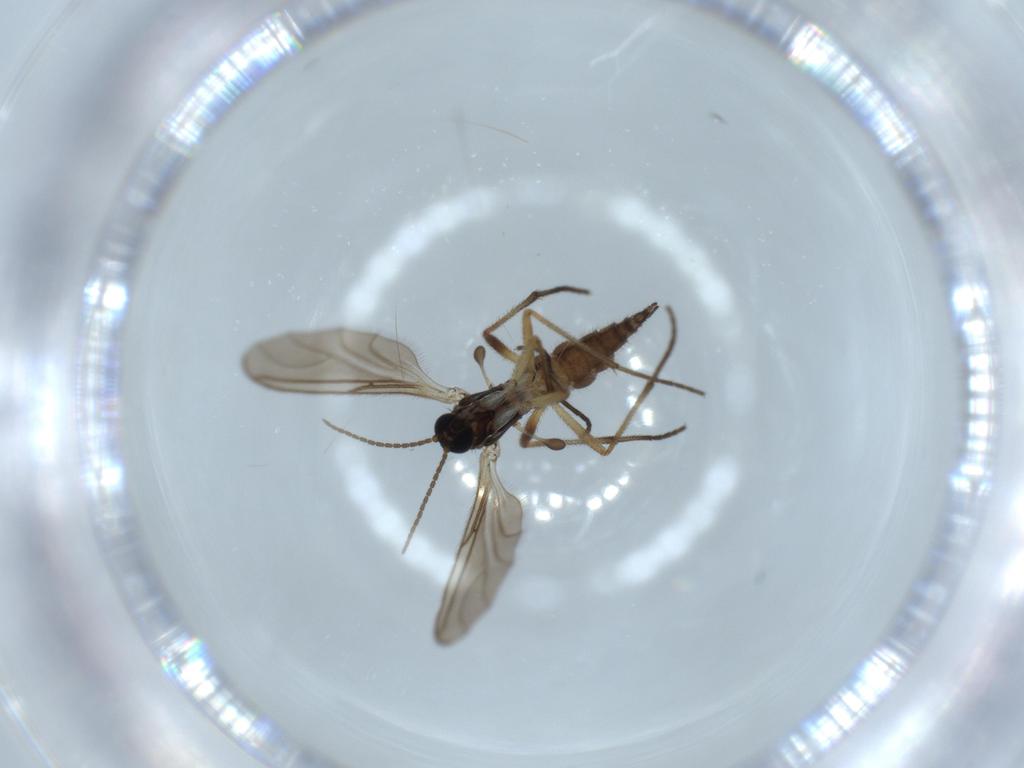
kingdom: Animalia
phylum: Arthropoda
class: Insecta
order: Diptera
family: Sciaridae
